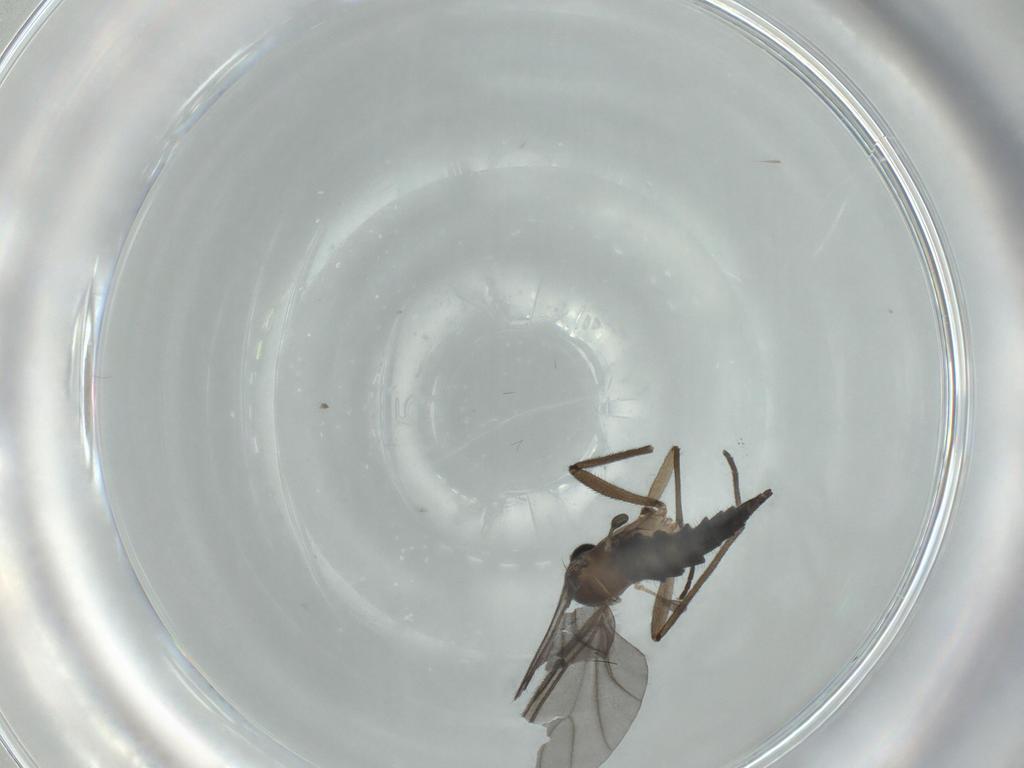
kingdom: Animalia
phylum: Arthropoda
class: Insecta
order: Diptera
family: Sciaridae
